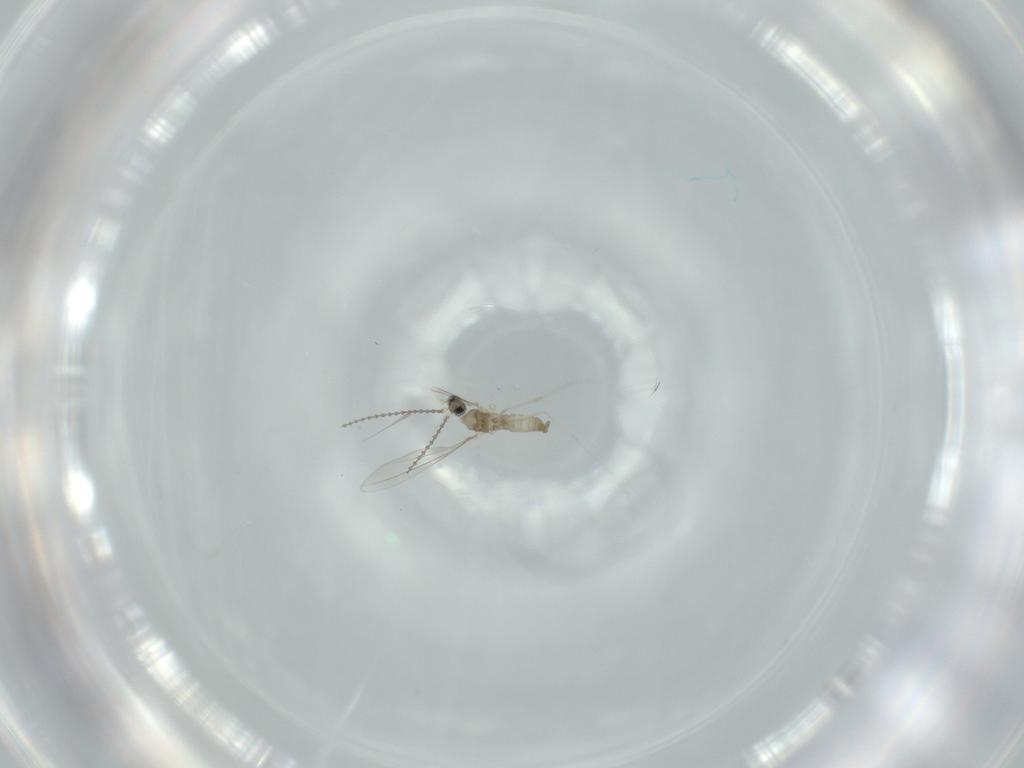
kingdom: Animalia
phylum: Arthropoda
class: Insecta
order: Diptera
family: Cecidomyiidae
